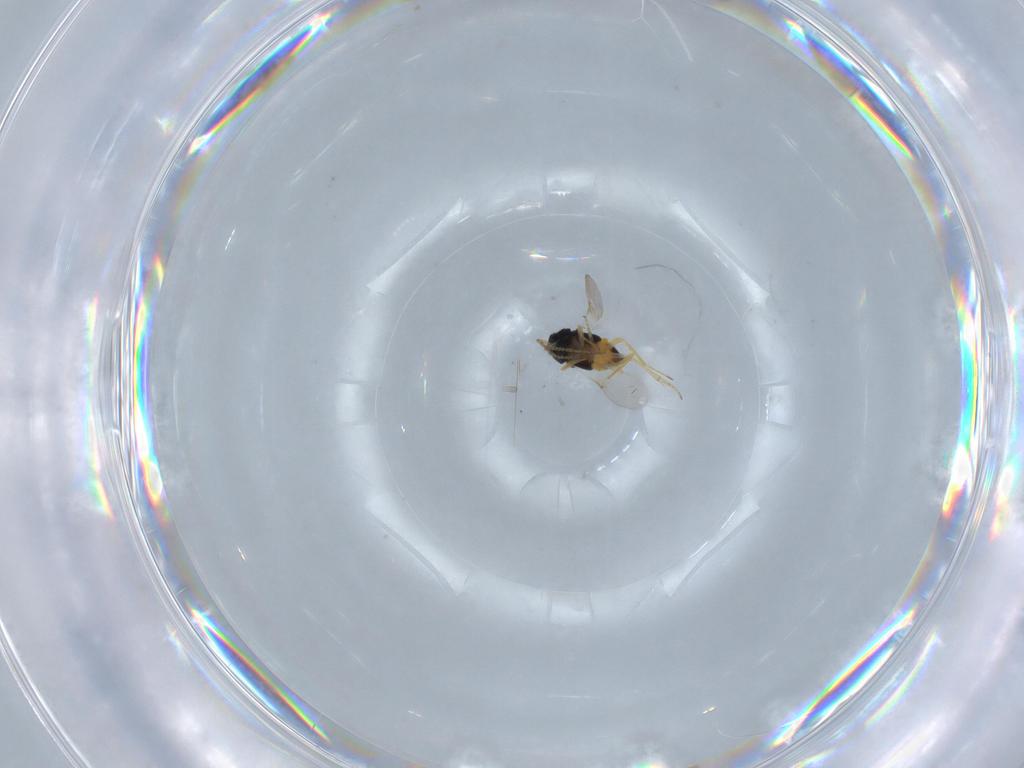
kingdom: Animalia
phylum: Arthropoda
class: Insecta
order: Hymenoptera
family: Encyrtidae
